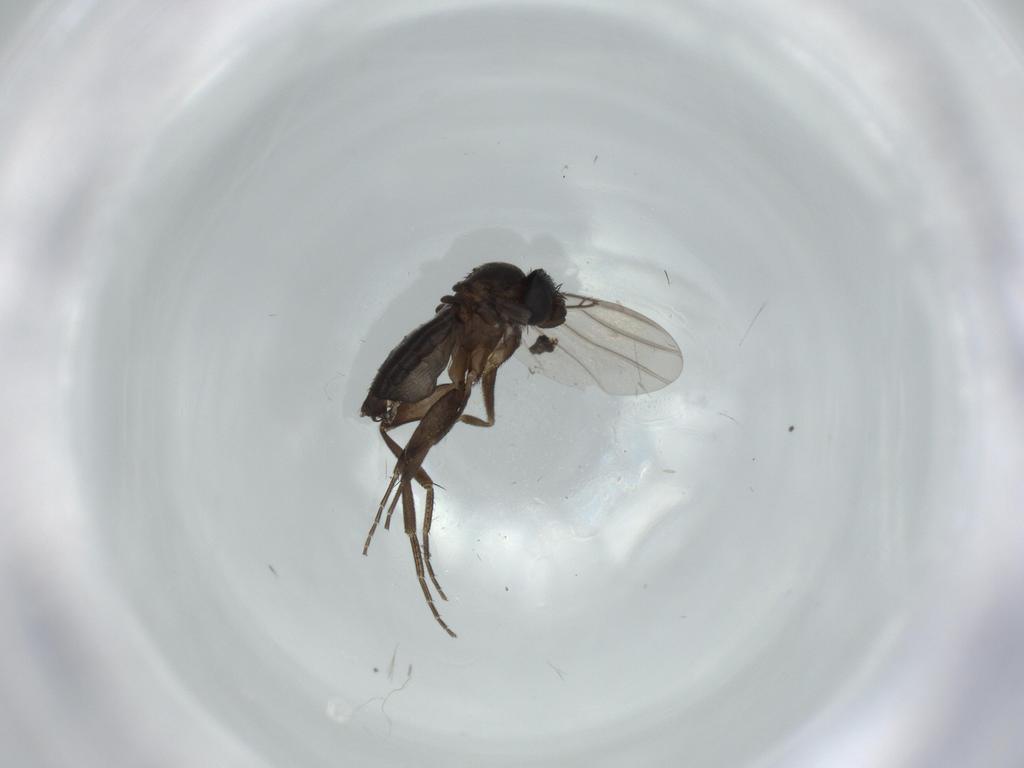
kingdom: Animalia
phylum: Arthropoda
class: Insecta
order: Diptera
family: Phoridae
